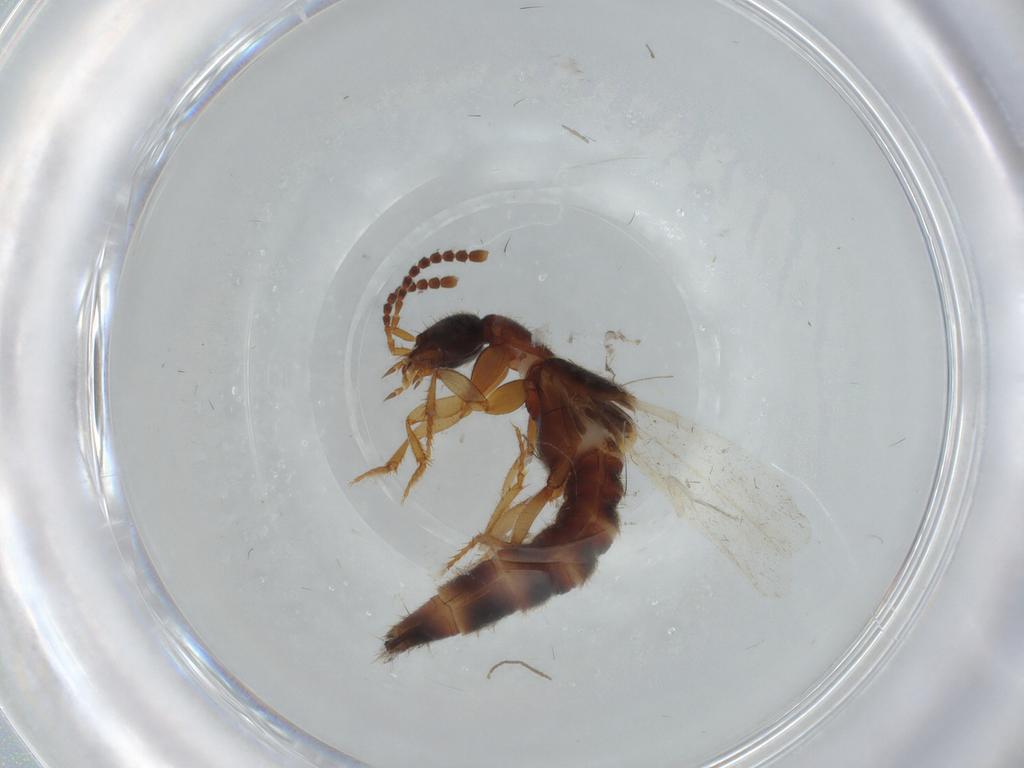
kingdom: Animalia
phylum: Arthropoda
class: Insecta
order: Coleoptera
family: Staphylinidae
